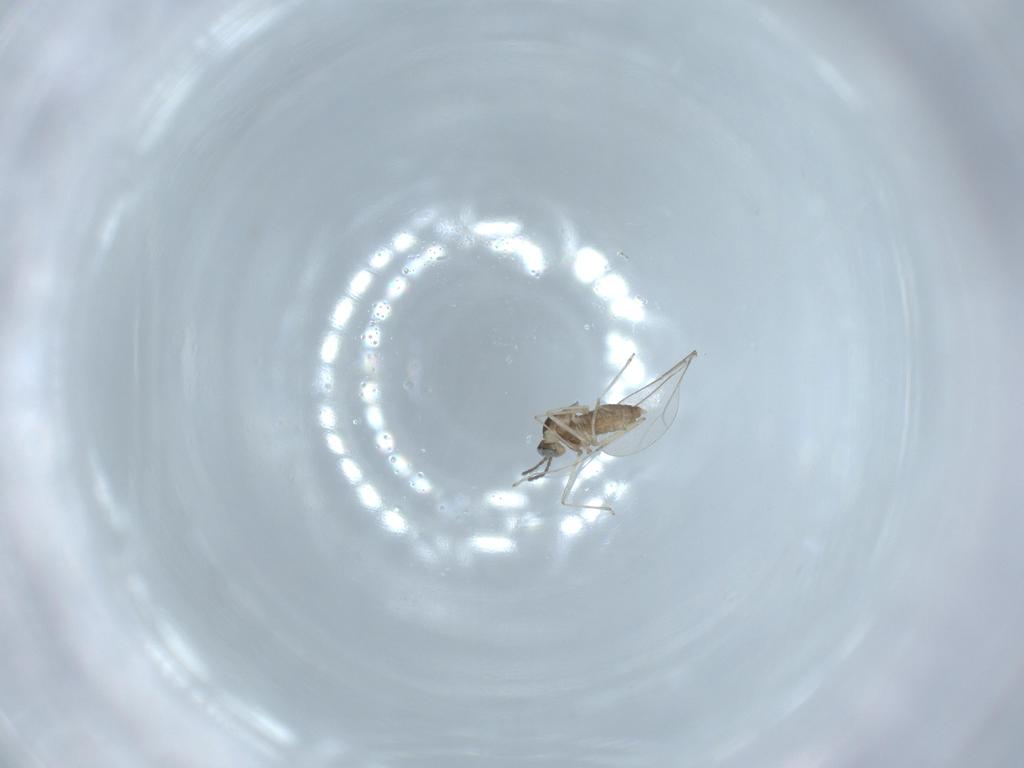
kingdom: Animalia
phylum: Arthropoda
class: Insecta
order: Diptera
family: Cecidomyiidae
